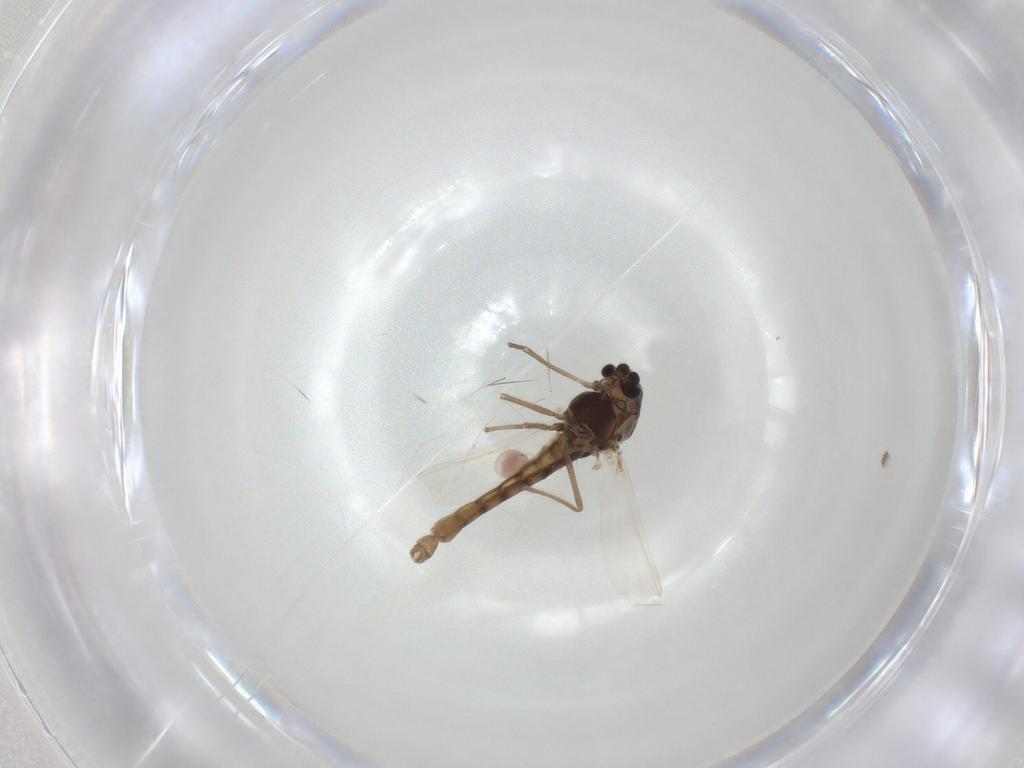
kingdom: Animalia
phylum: Arthropoda
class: Insecta
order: Diptera
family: Chironomidae
